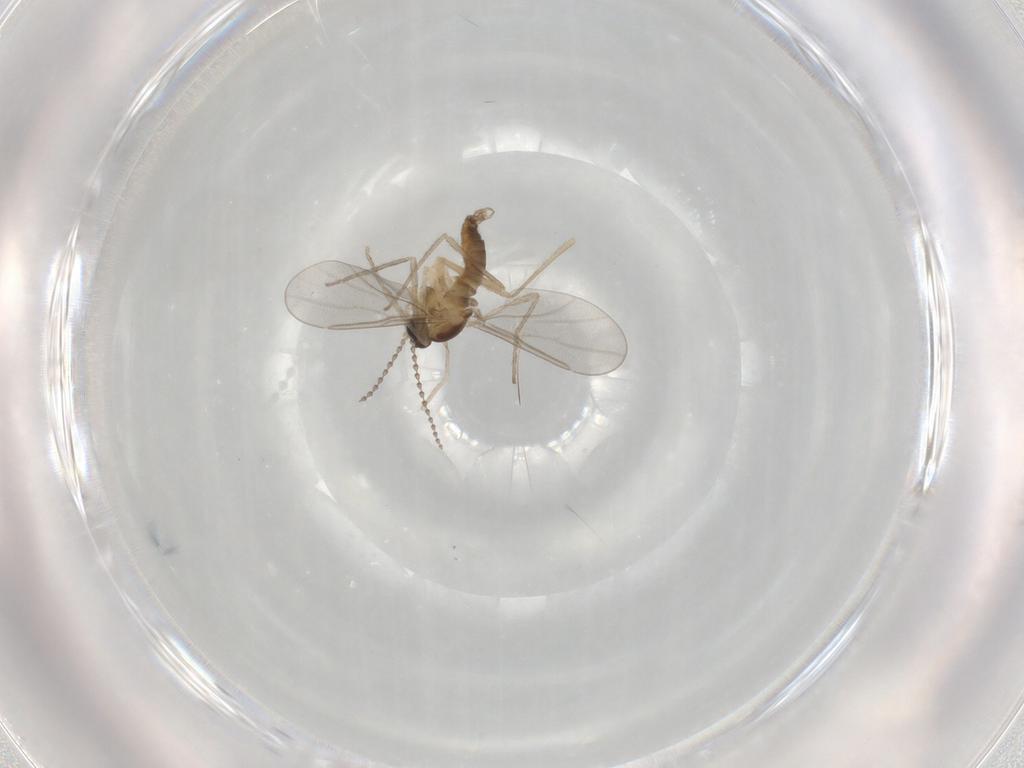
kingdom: Animalia
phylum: Arthropoda
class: Insecta
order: Diptera
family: Cecidomyiidae
